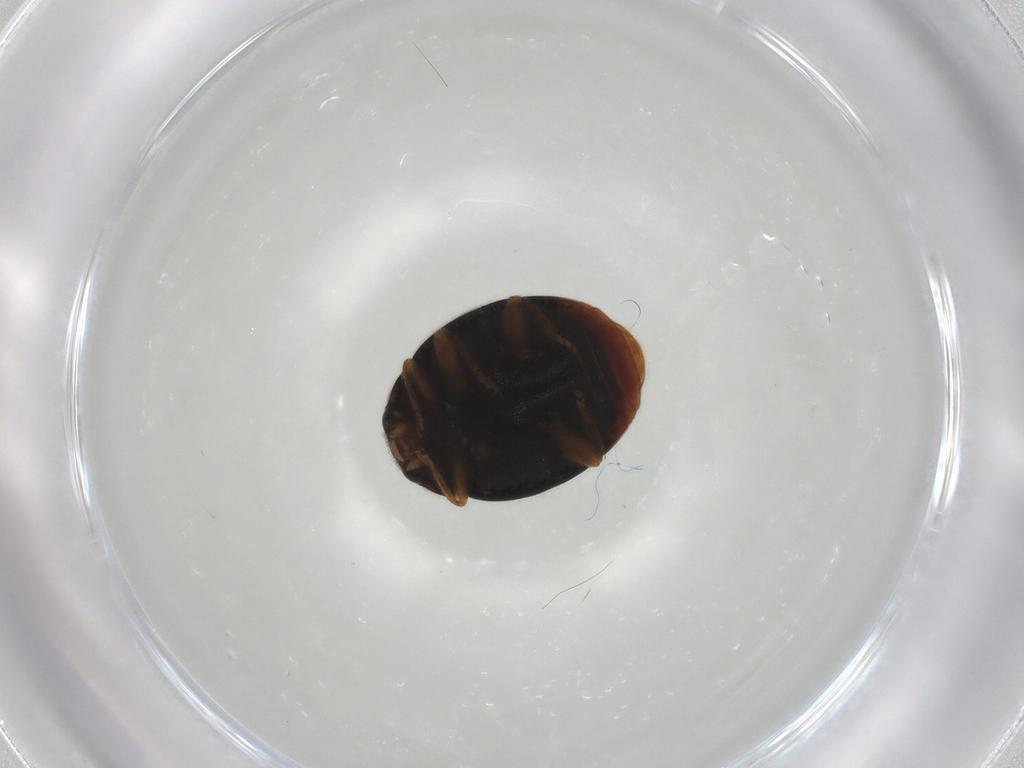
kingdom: Animalia
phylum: Arthropoda
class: Insecta
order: Coleoptera
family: Coccinellidae
